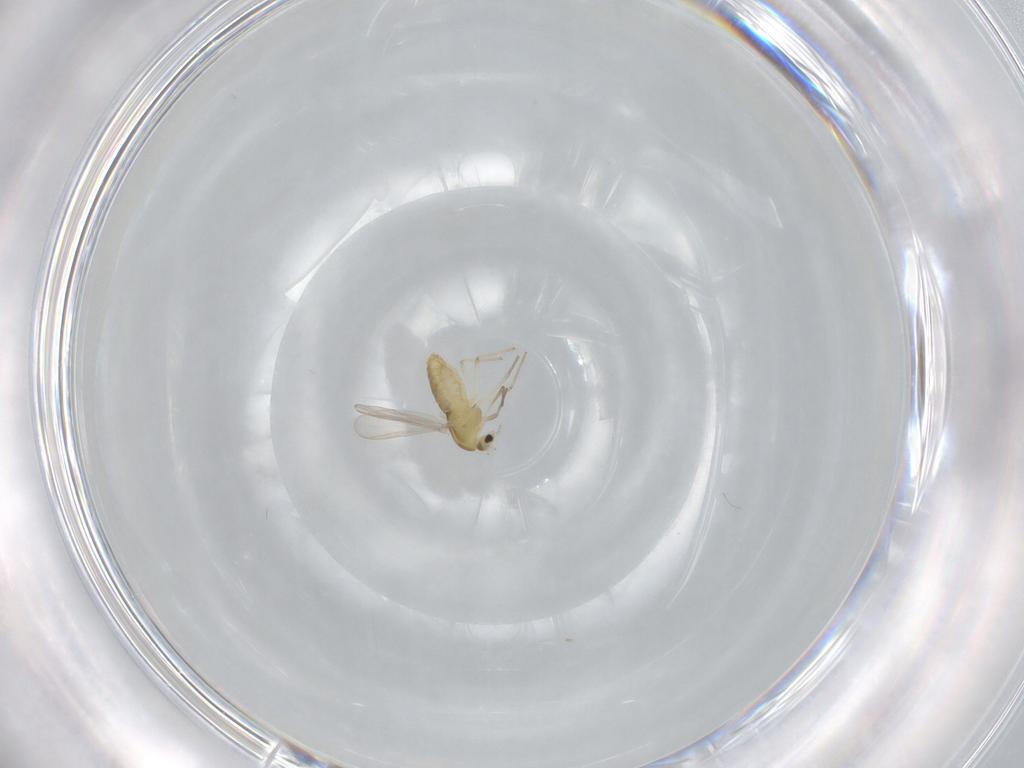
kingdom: Animalia
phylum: Arthropoda
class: Insecta
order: Diptera
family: Chironomidae
